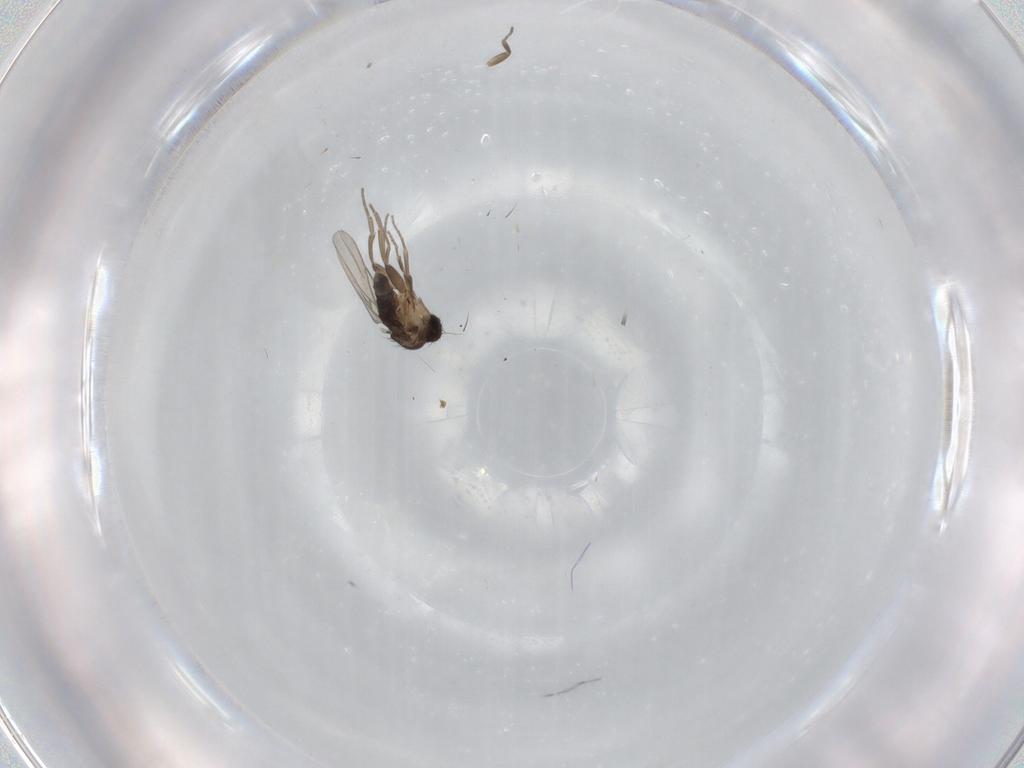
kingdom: Animalia
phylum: Arthropoda
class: Insecta
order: Diptera
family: Phoridae
